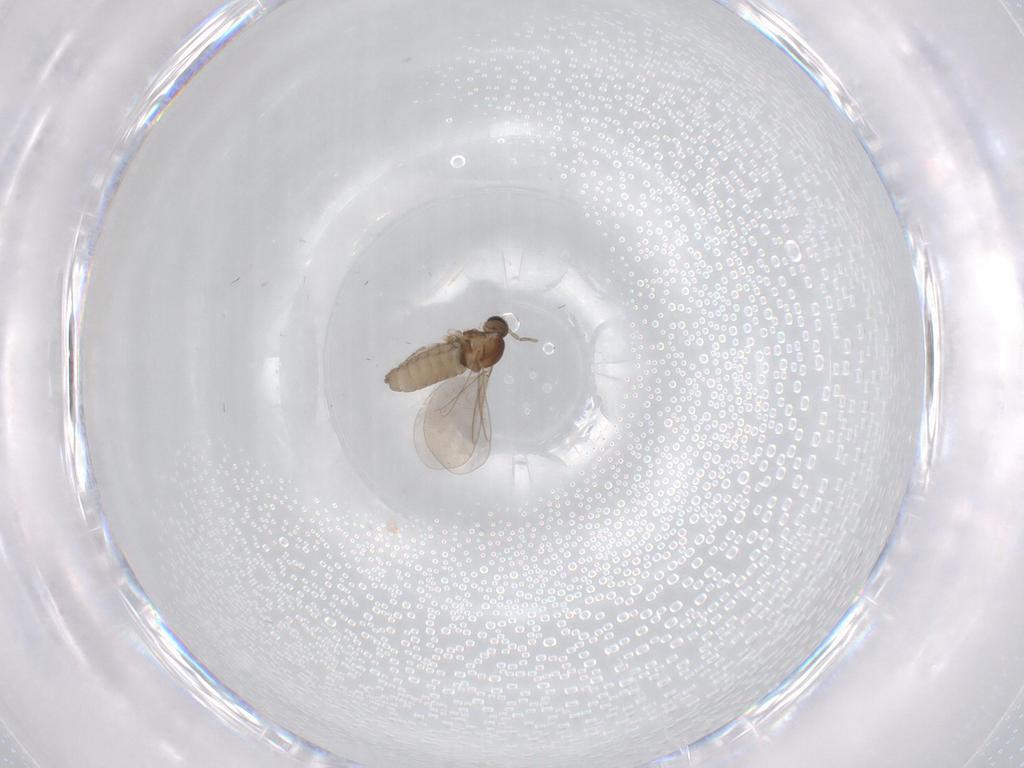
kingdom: Animalia
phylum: Arthropoda
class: Insecta
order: Diptera
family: Cecidomyiidae
